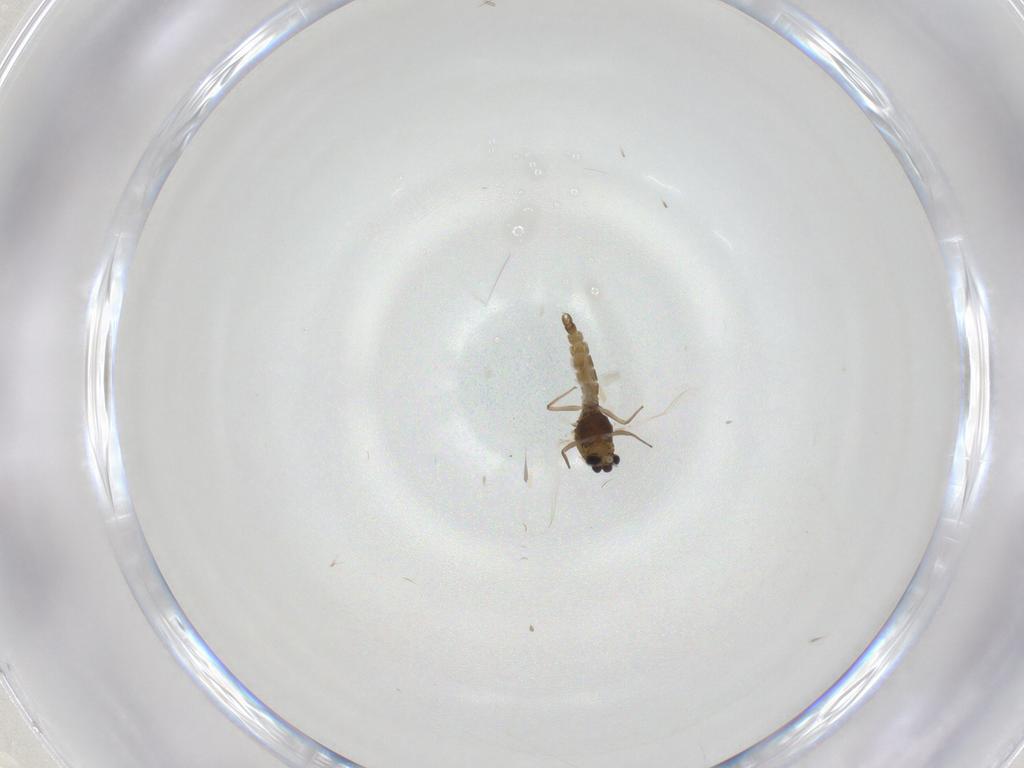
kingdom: Animalia
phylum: Arthropoda
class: Insecta
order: Diptera
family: Chironomidae
